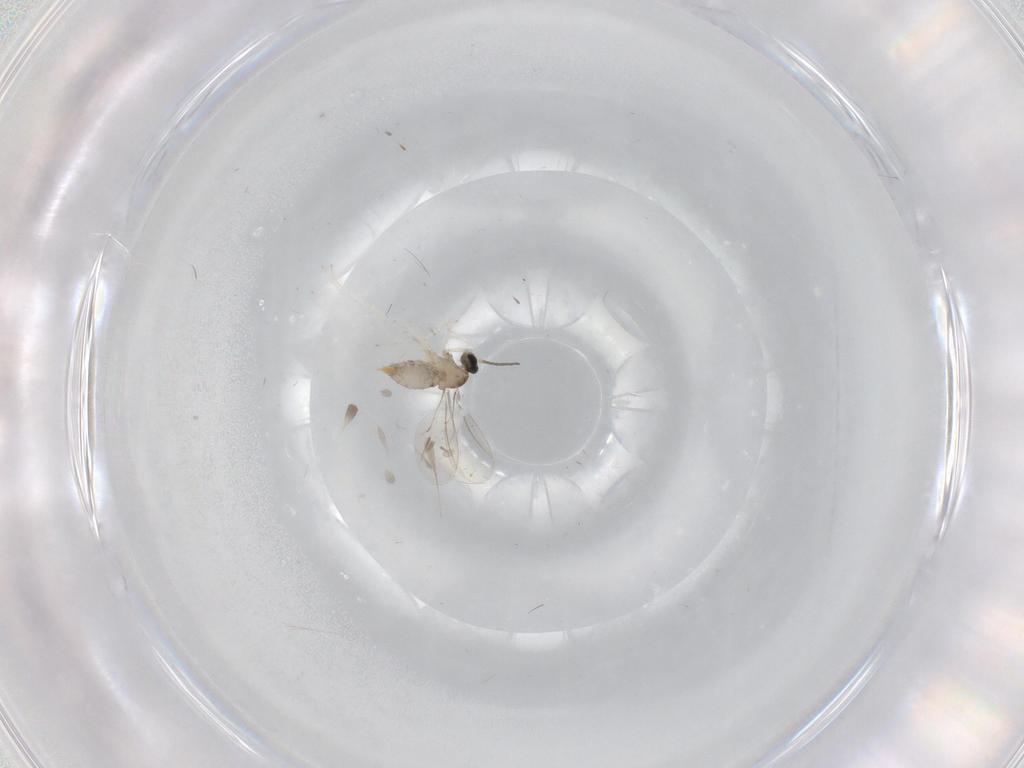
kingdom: Animalia
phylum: Arthropoda
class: Insecta
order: Diptera
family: Cecidomyiidae
